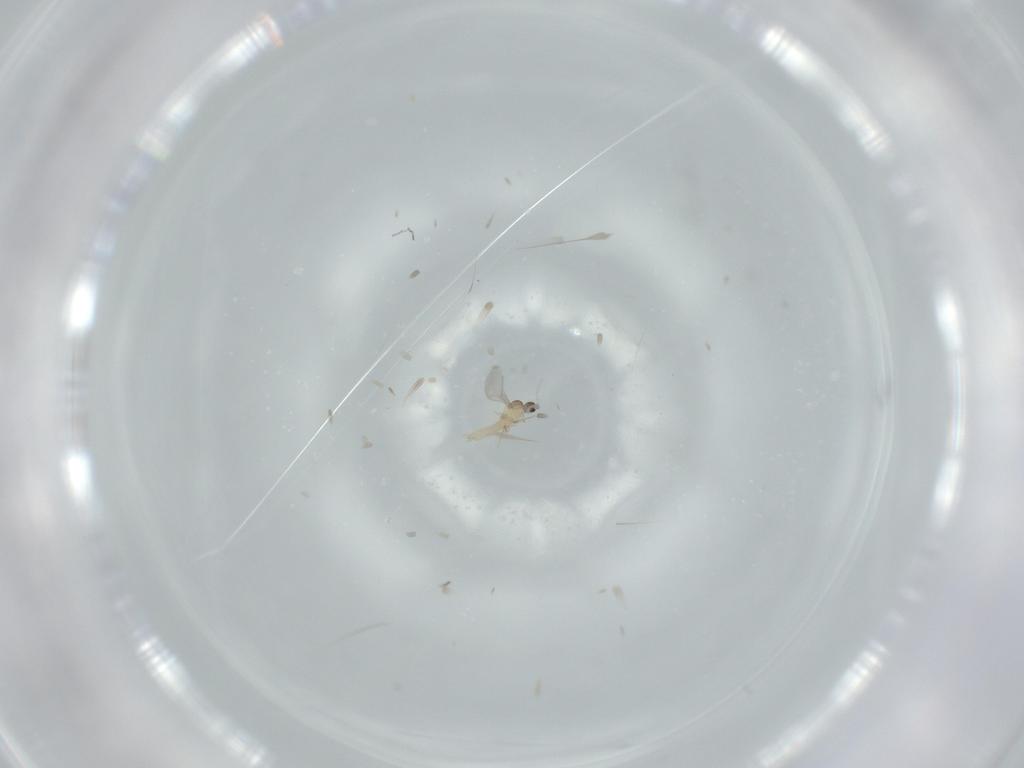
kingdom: Animalia
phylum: Arthropoda
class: Insecta
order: Diptera
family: Cecidomyiidae
